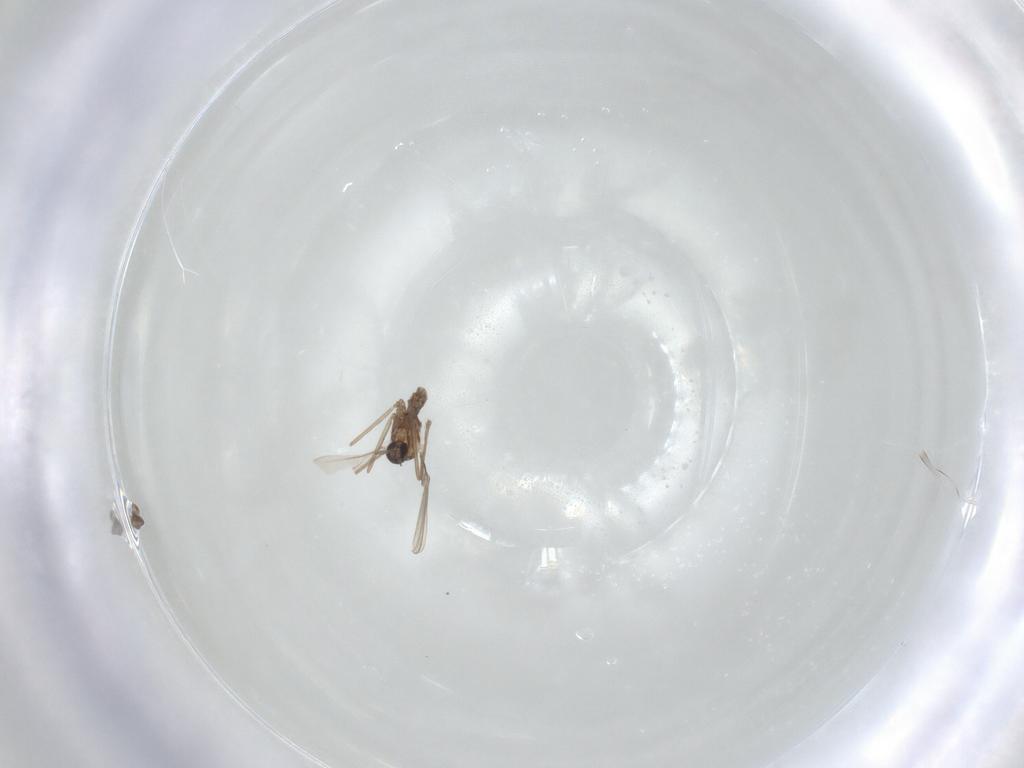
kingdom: Animalia
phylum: Arthropoda
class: Insecta
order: Diptera
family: Cecidomyiidae
